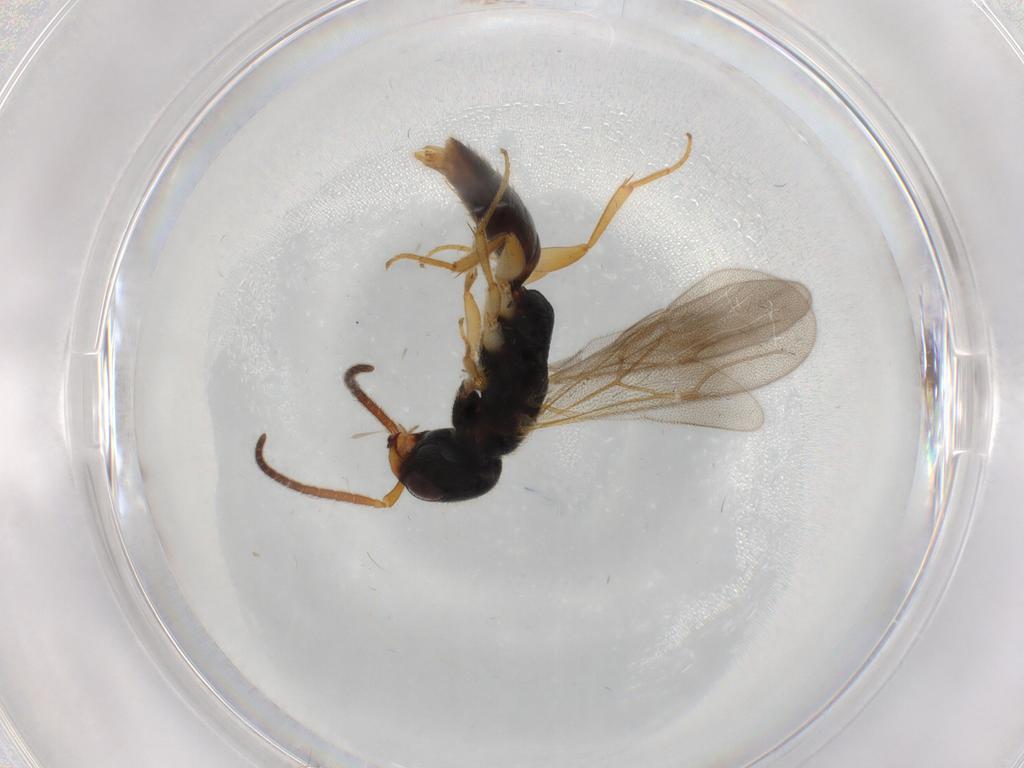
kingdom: Animalia
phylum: Arthropoda
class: Insecta
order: Hymenoptera
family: Bethylidae
